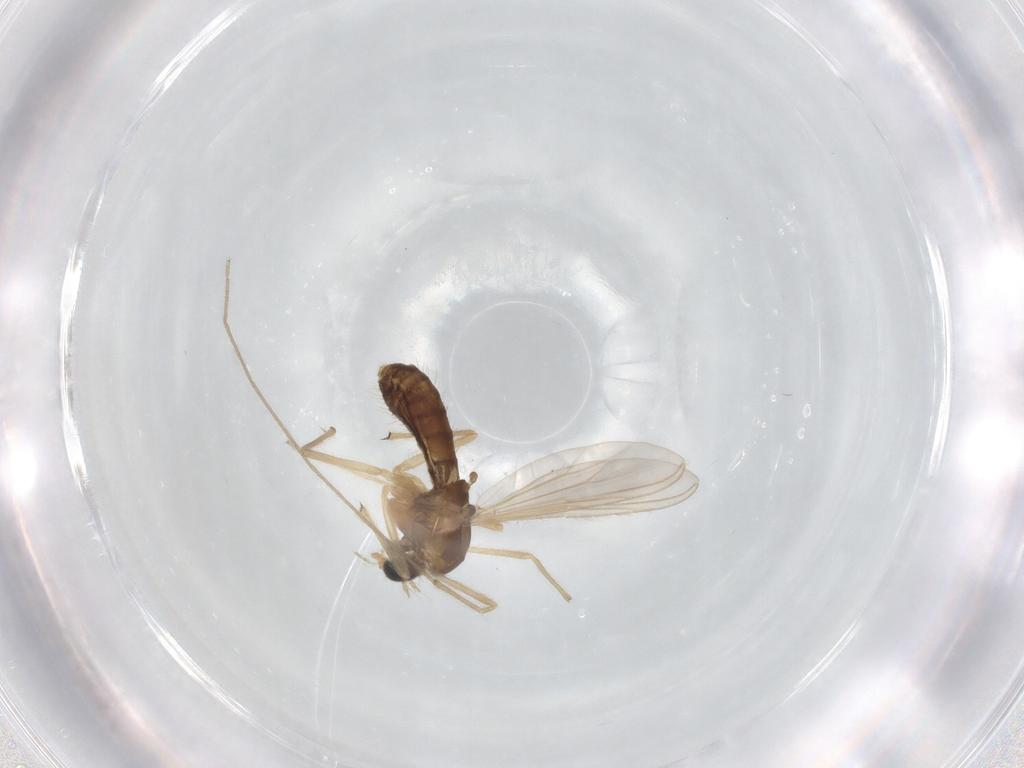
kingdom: Animalia
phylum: Arthropoda
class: Insecta
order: Diptera
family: Chironomidae
